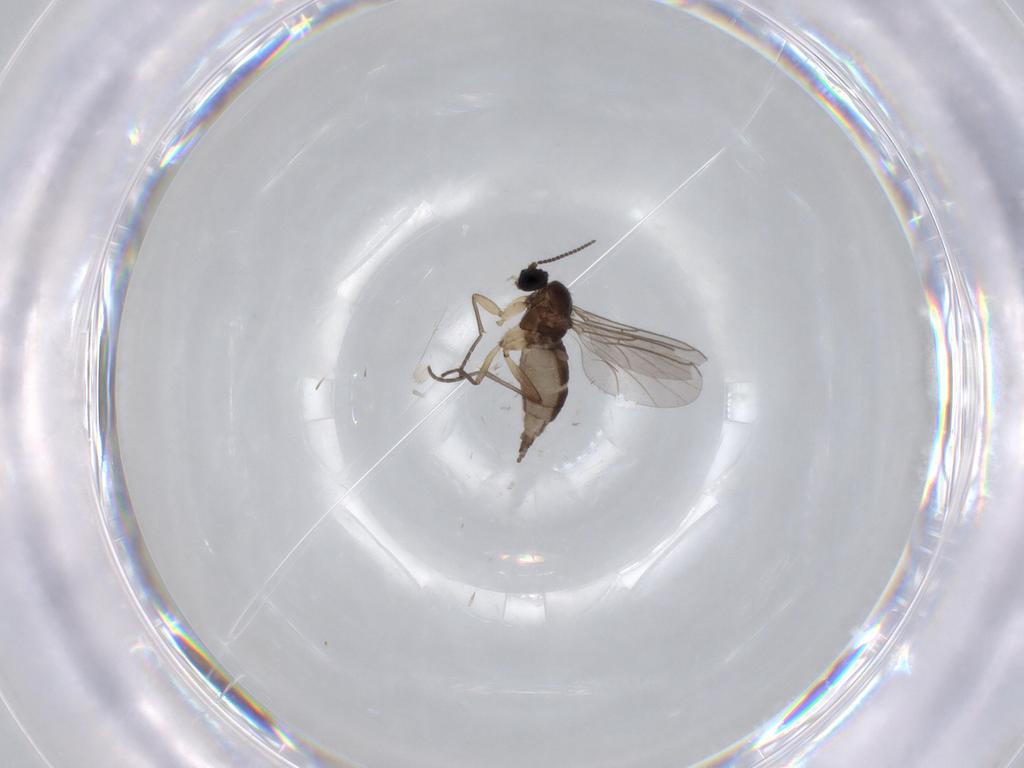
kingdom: Animalia
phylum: Arthropoda
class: Insecta
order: Diptera
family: Sciaridae
